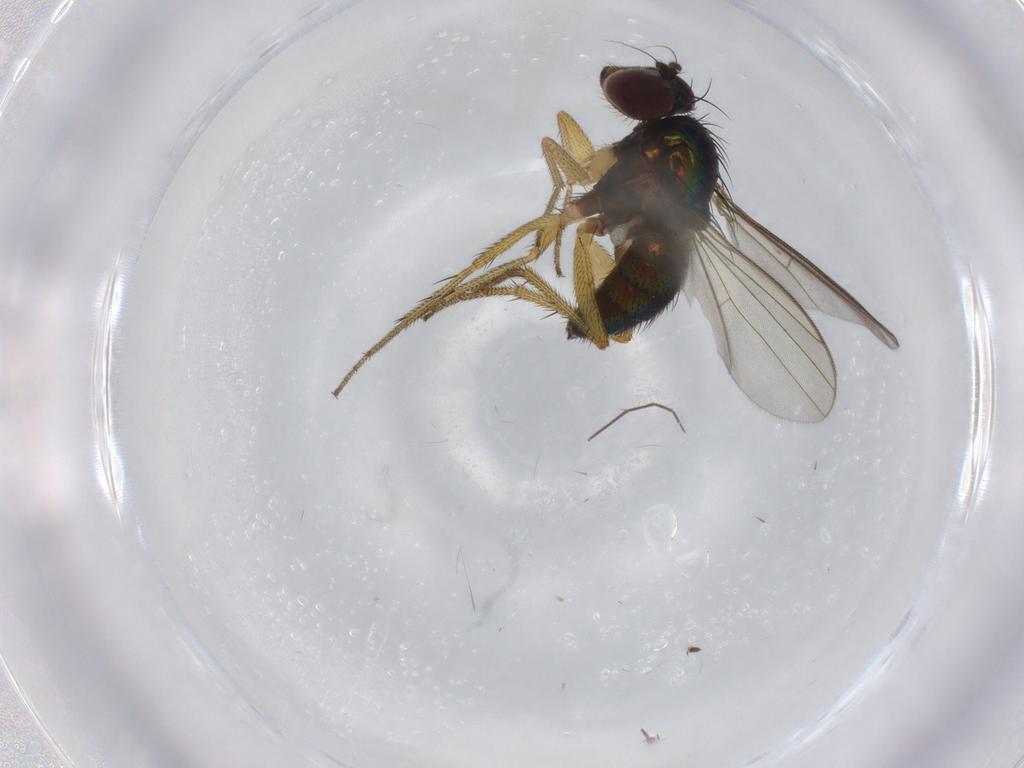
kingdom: Animalia
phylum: Arthropoda
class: Insecta
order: Diptera
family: Dolichopodidae
